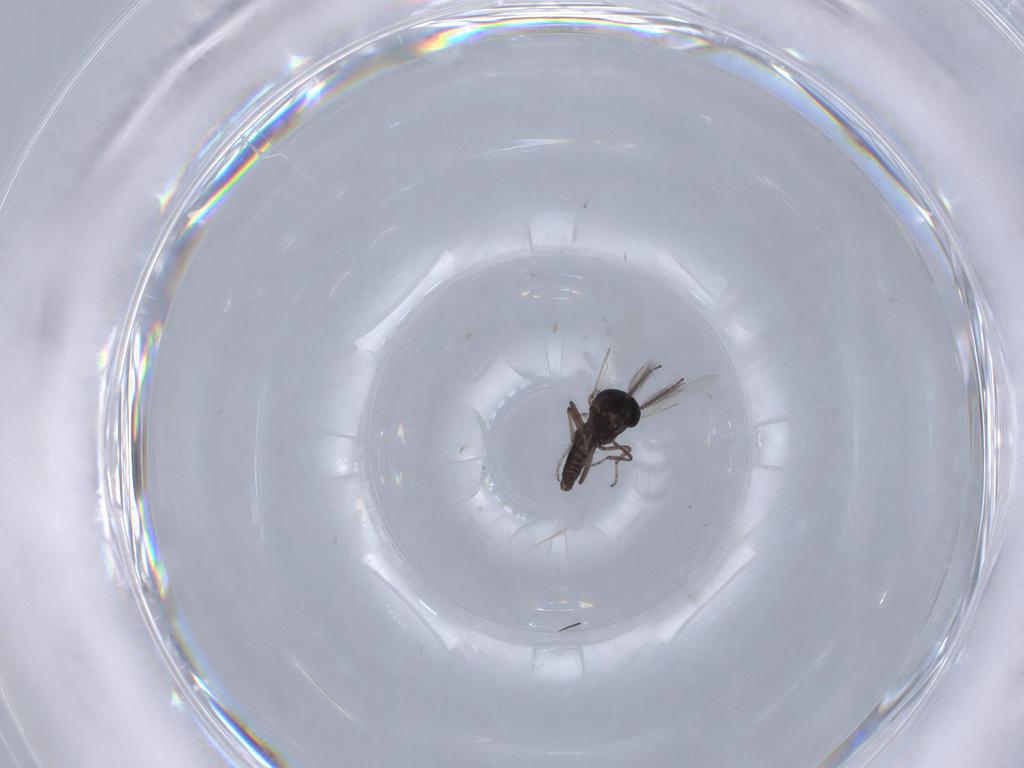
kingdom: Animalia
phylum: Arthropoda
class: Insecta
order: Diptera
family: Ceratopogonidae
